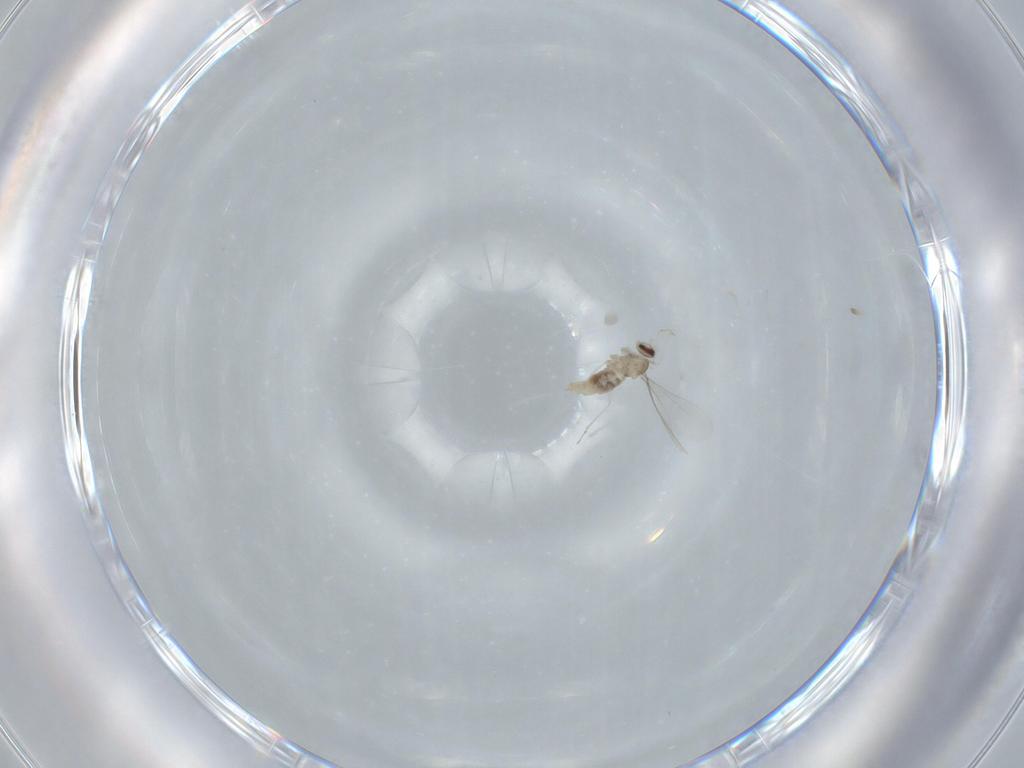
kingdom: Animalia
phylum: Arthropoda
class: Insecta
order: Diptera
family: Cecidomyiidae
